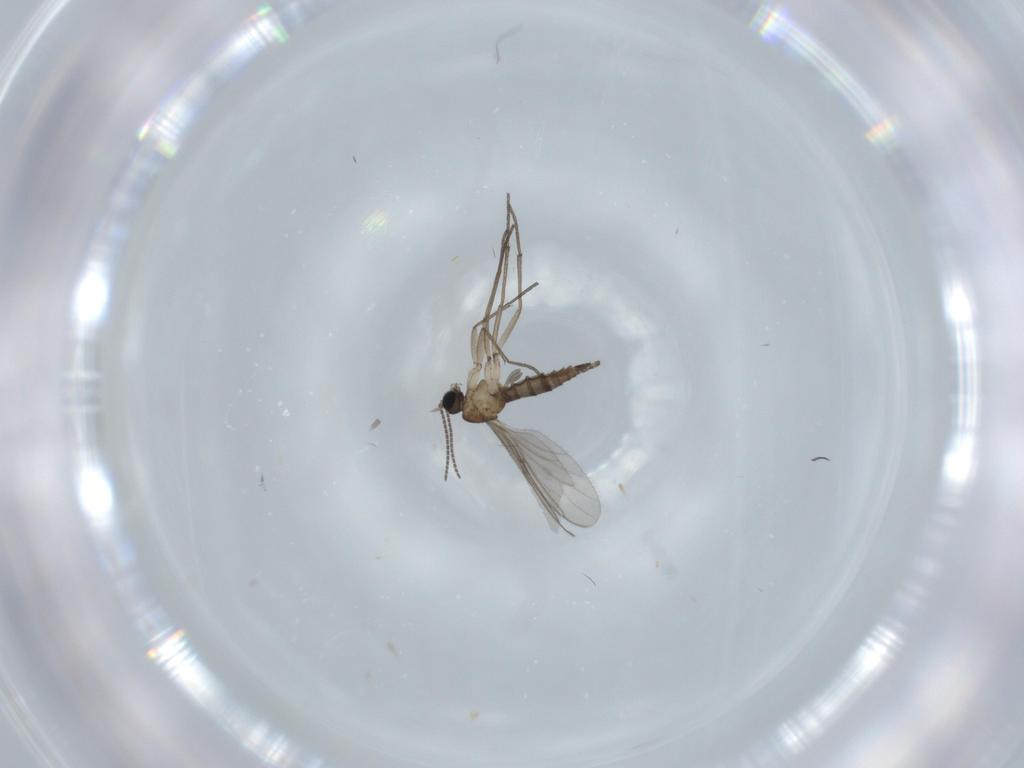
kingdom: Animalia
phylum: Arthropoda
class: Insecta
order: Diptera
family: Sciaridae
